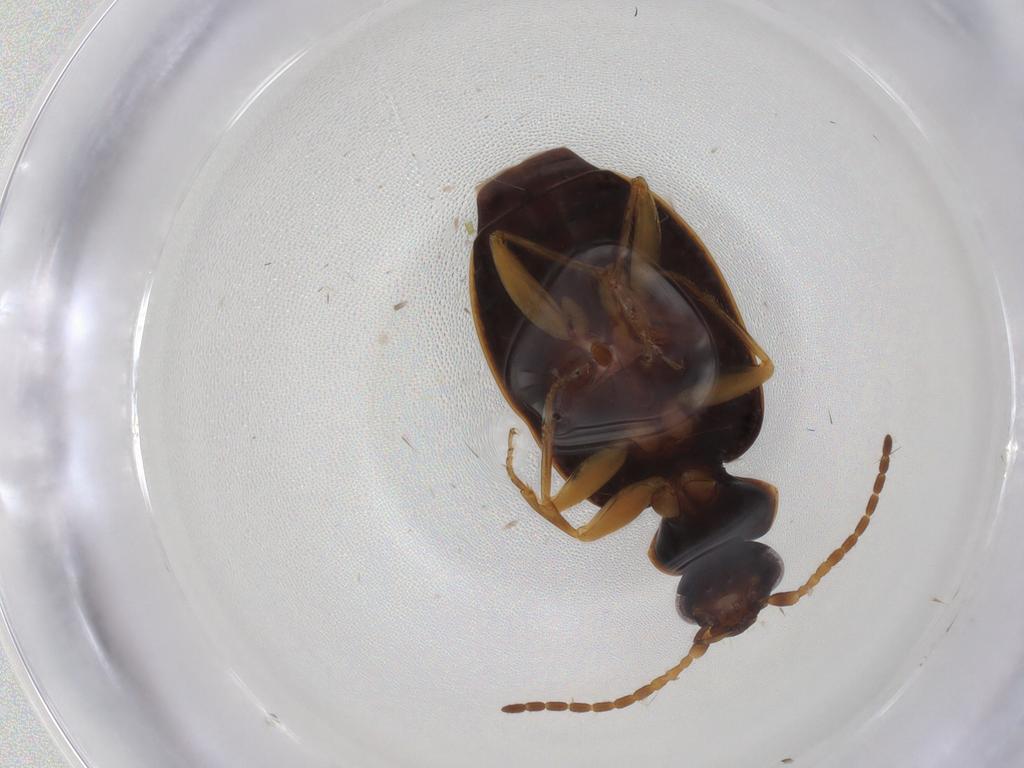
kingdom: Animalia
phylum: Arthropoda
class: Insecta
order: Coleoptera
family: Carabidae
